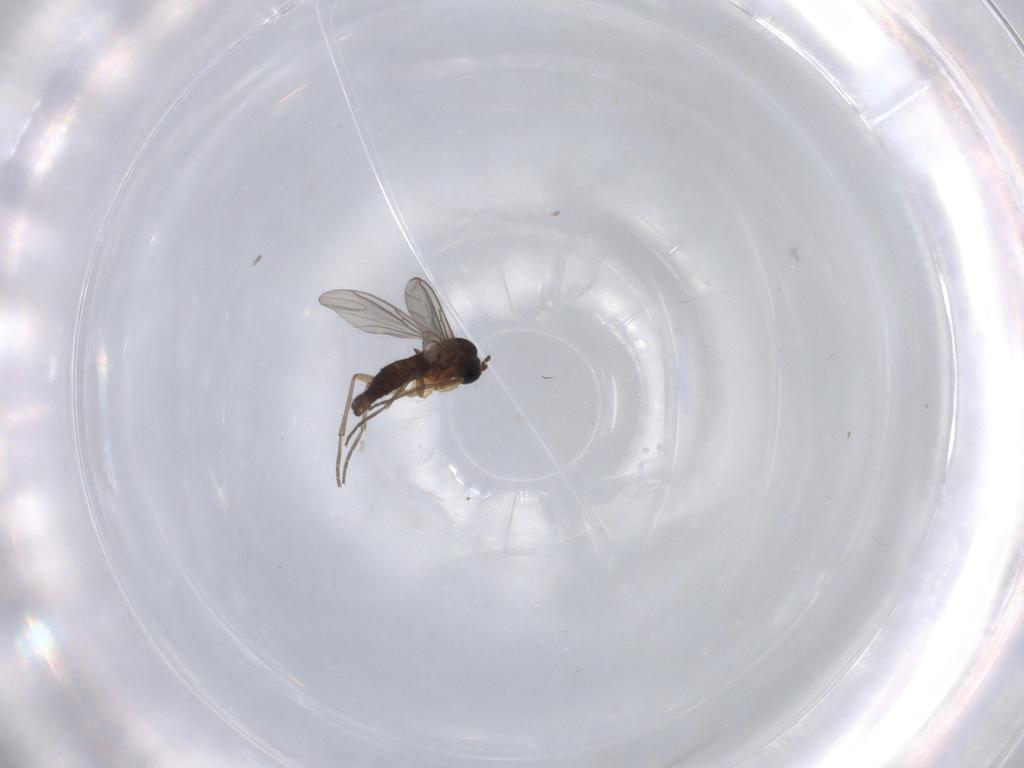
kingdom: Animalia
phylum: Arthropoda
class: Insecta
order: Diptera
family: Sciaridae
